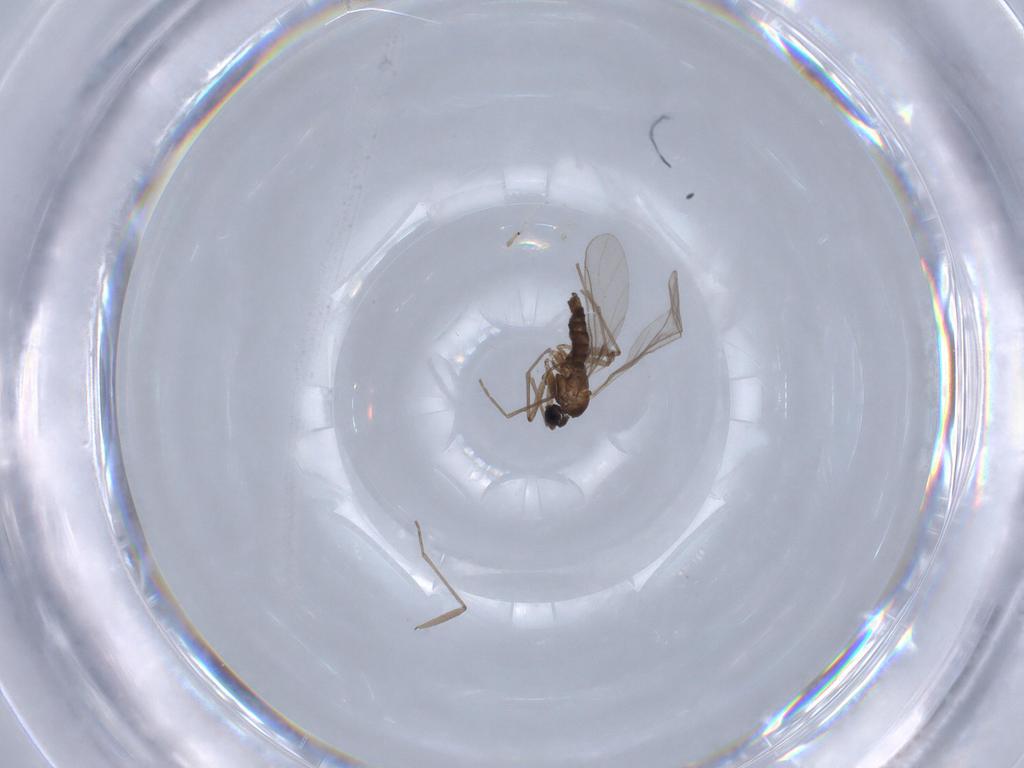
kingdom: Animalia
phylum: Arthropoda
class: Insecta
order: Diptera
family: Sciaridae
